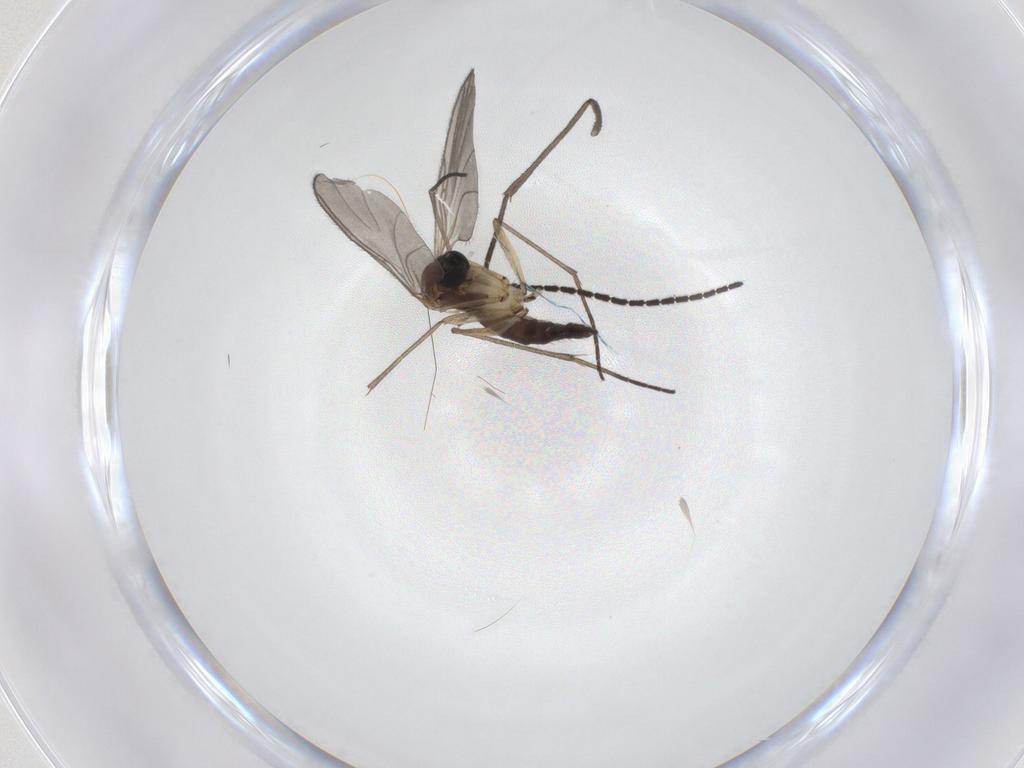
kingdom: Animalia
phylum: Arthropoda
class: Insecta
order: Diptera
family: Sciaridae
